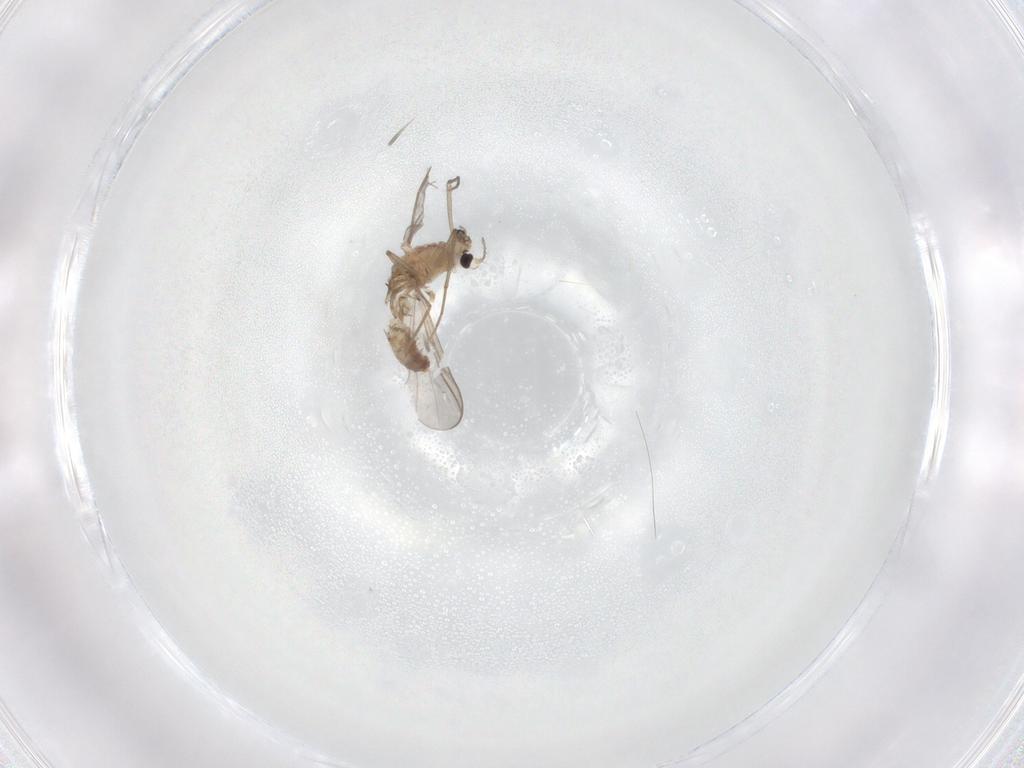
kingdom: Animalia
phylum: Arthropoda
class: Insecta
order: Diptera
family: Chironomidae
